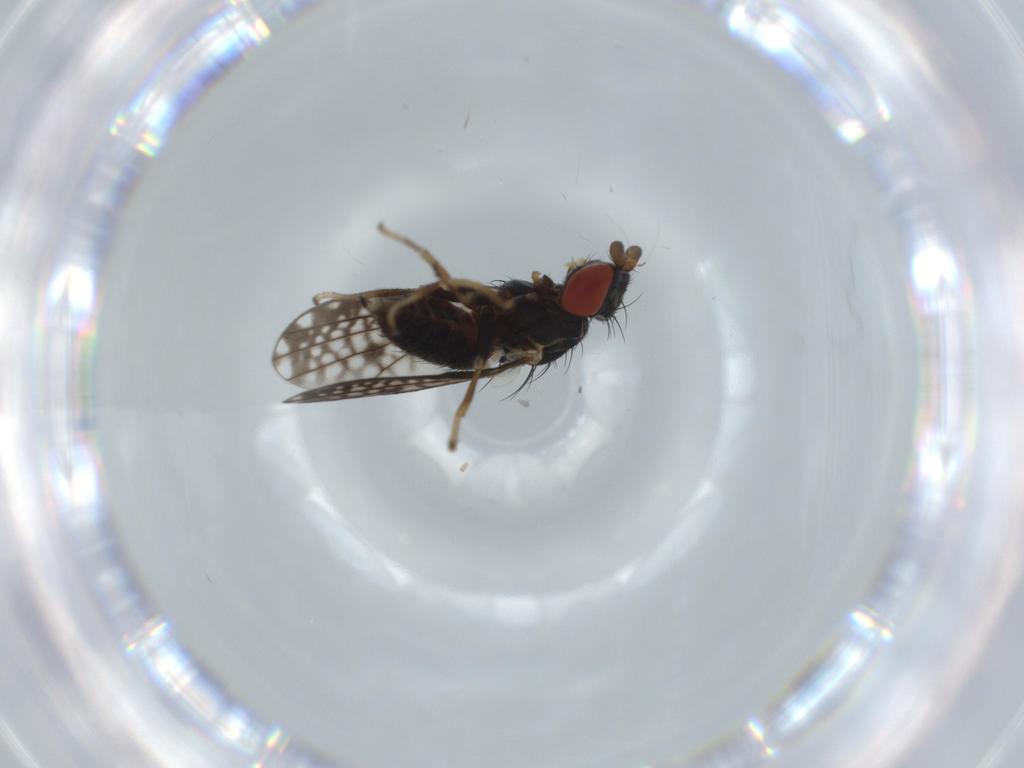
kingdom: Animalia
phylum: Arthropoda
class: Insecta
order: Diptera
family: Chamaemyiidae
